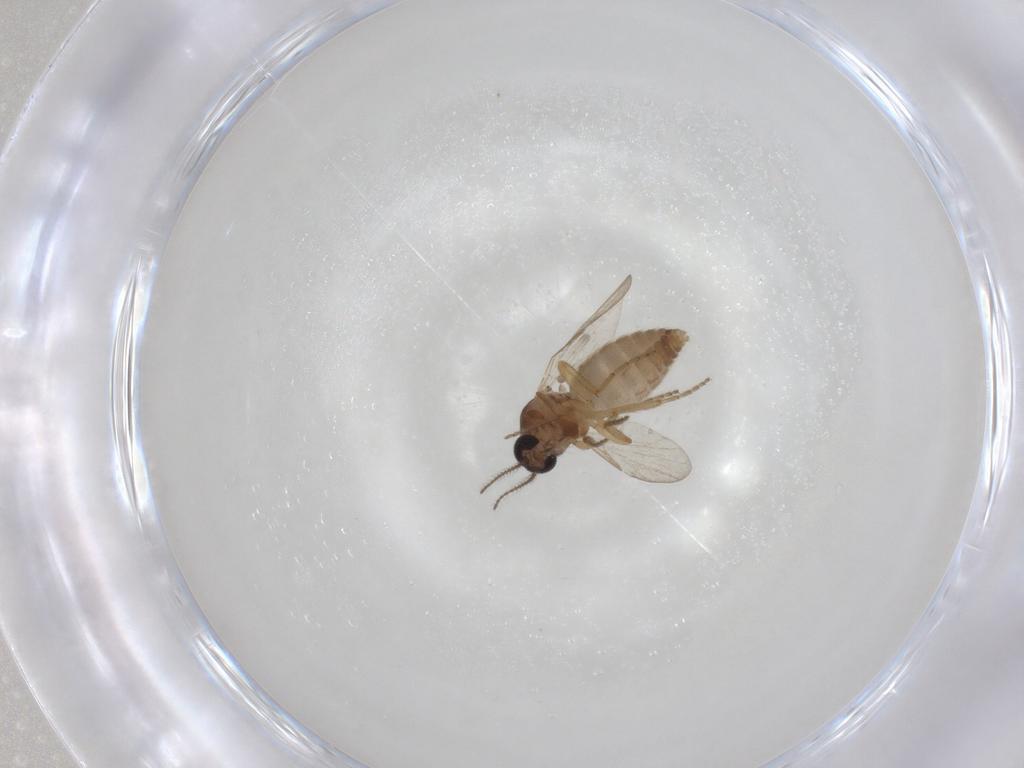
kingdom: Animalia
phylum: Arthropoda
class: Insecta
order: Diptera
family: Ceratopogonidae
